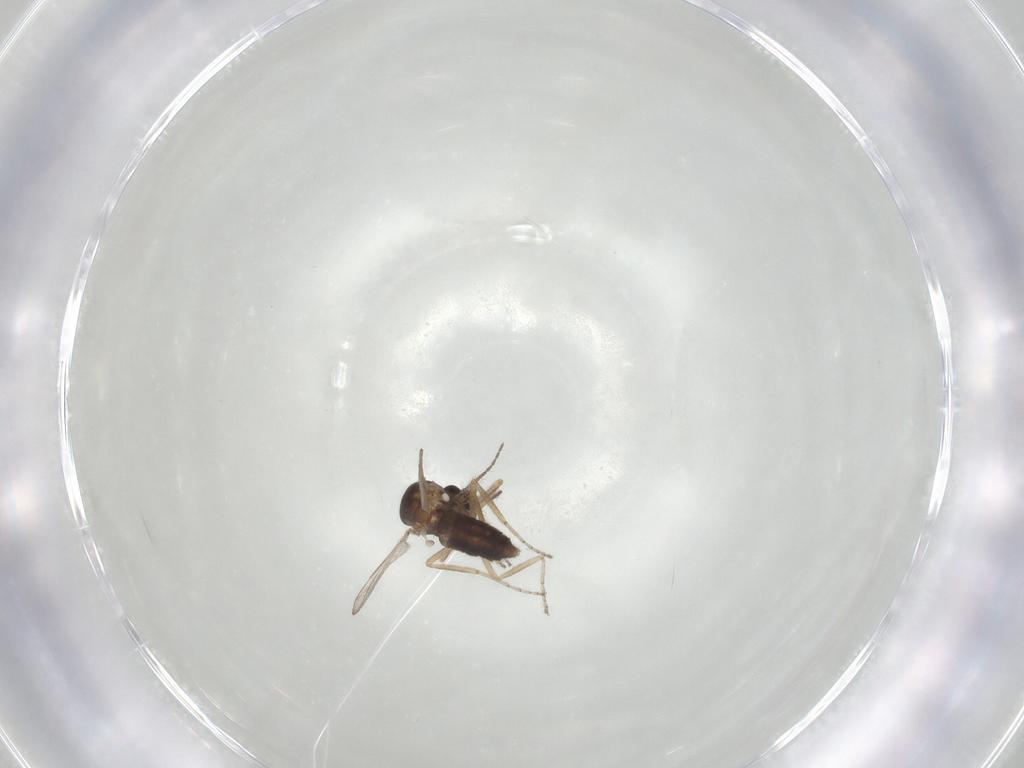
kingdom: Animalia
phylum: Arthropoda
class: Insecta
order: Diptera
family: Ceratopogonidae
